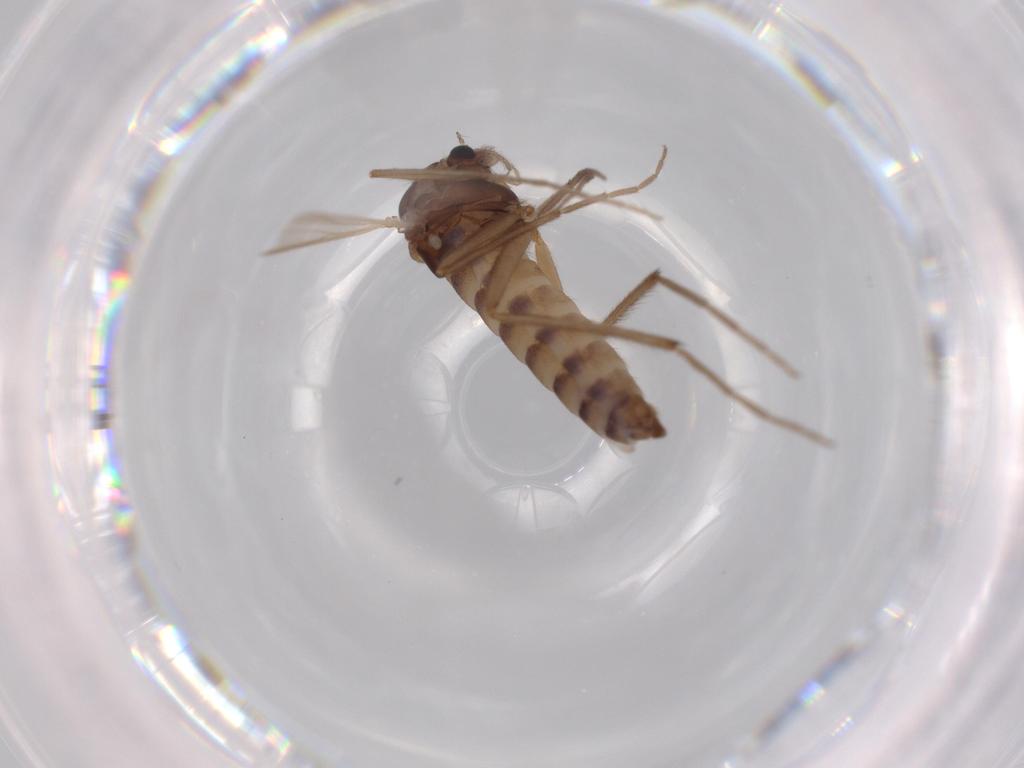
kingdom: Animalia
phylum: Arthropoda
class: Insecta
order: Diptera
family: Chironomidae
